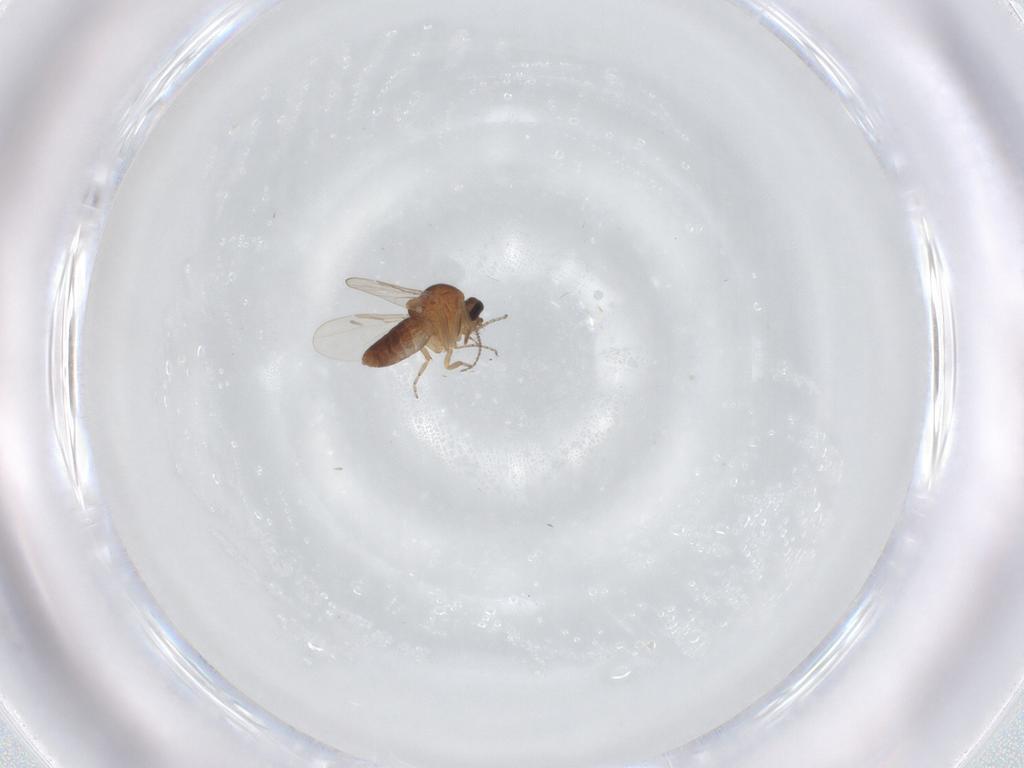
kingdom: Animalia
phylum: Arthropoda
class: Insecta
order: Diptera
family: Ceratopogonidae
